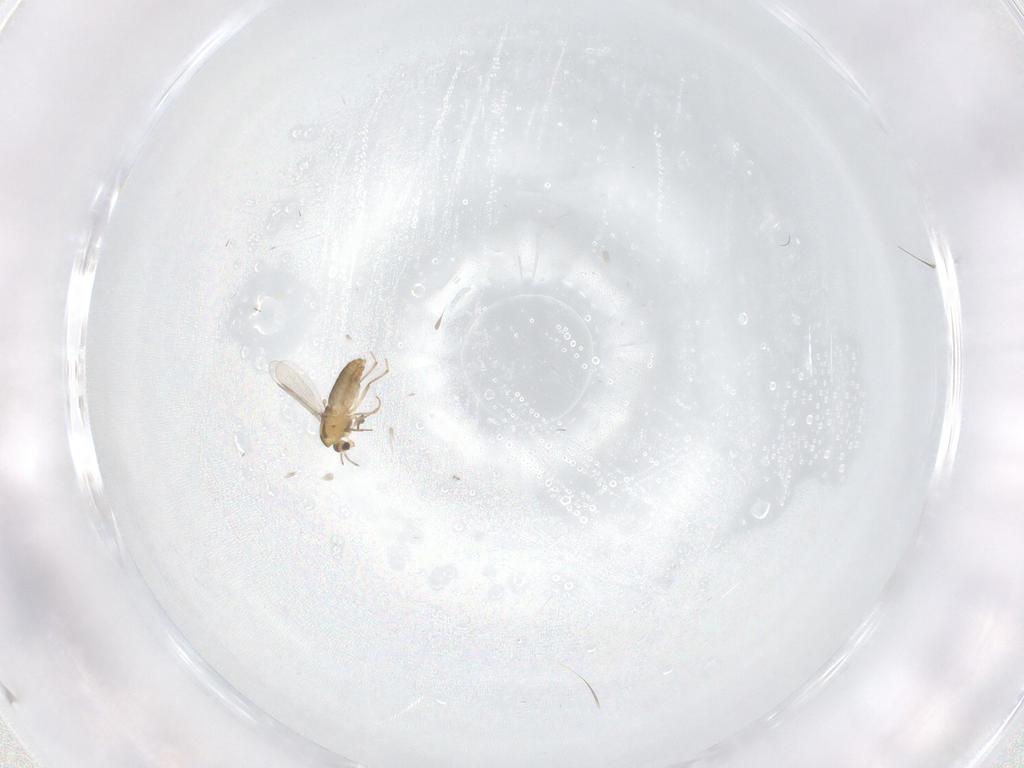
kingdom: Animalia
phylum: Arthropoda
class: Insecta
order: Diptera
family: Chironomidae
